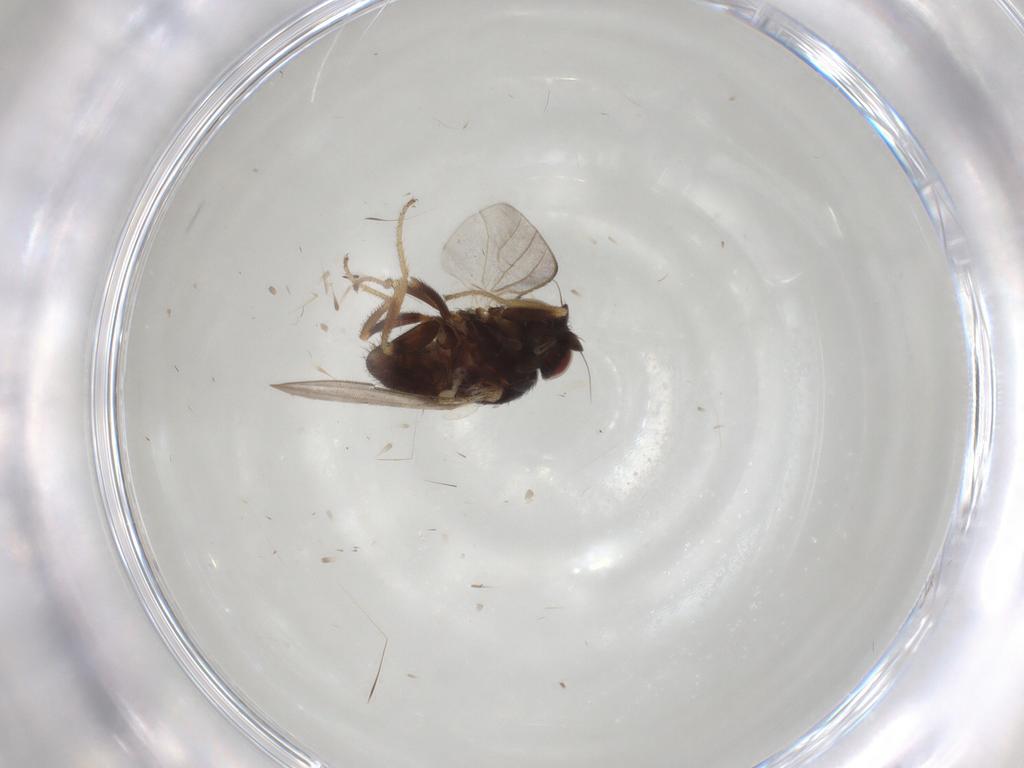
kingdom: Animalia
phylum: Arthropoda
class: Insecta
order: Diptera
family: Milichiidae
